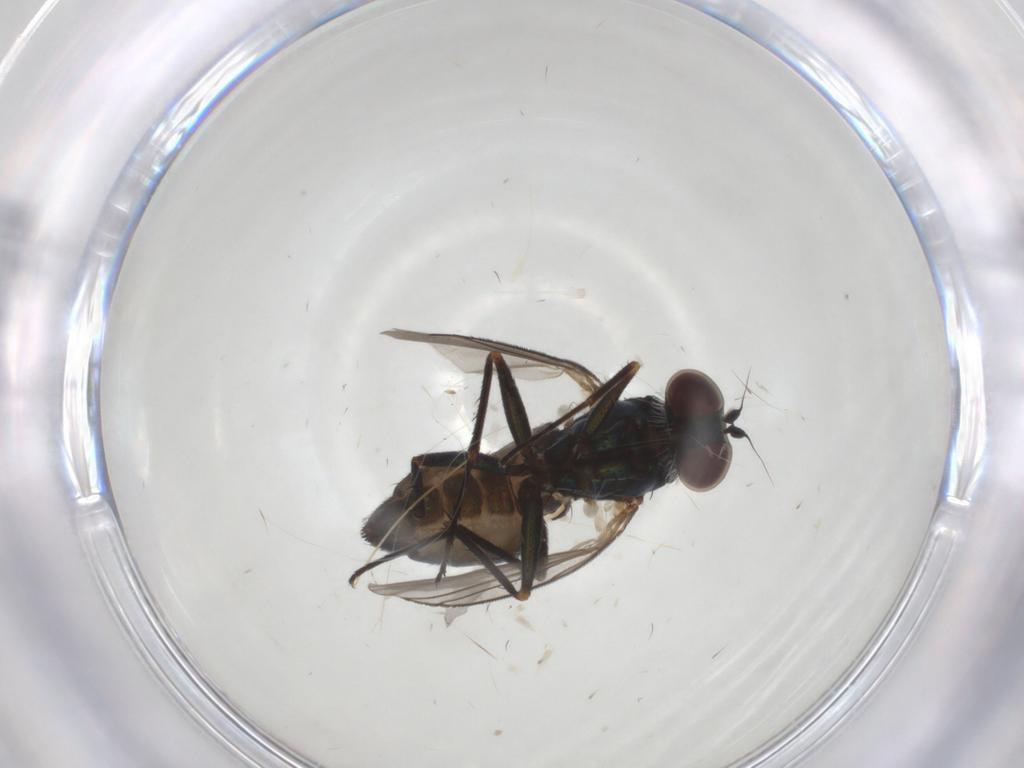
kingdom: Animalia
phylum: Arthropoda
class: Insecta
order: Diptera
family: Dolichopodidae
